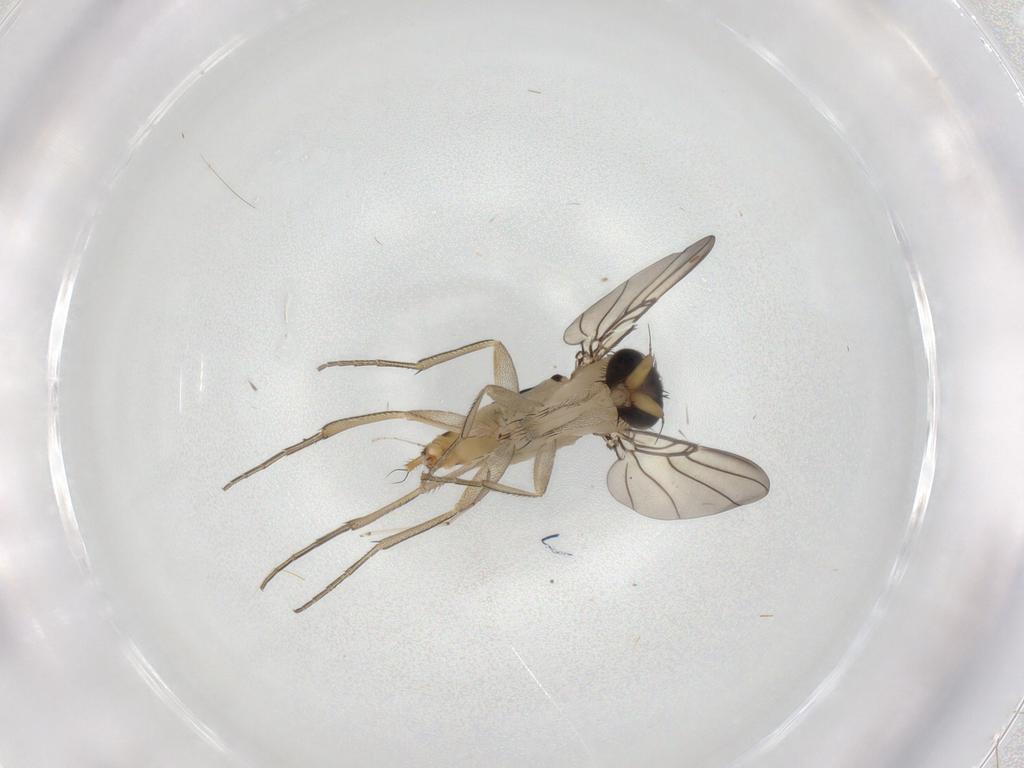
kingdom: Animalia
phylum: Arthropoda
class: Insecta
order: Diptera
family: Phoridae
